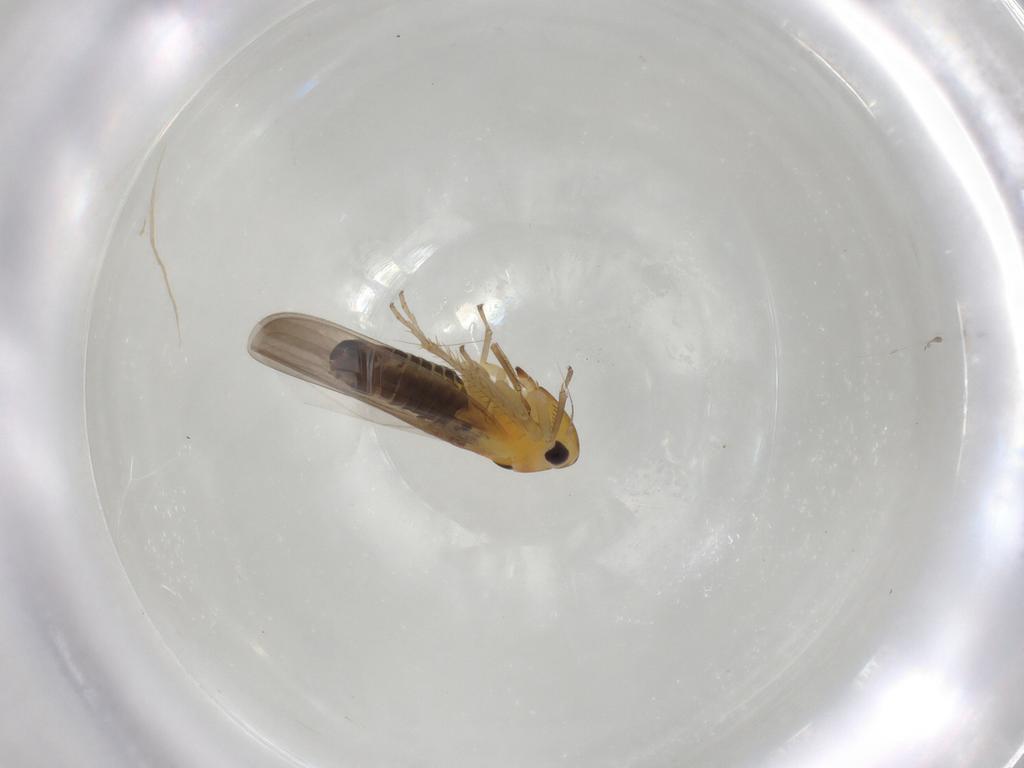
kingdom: Animalia
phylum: Arthropoda
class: Insecta
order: Hemiptera
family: Cicadellidae
